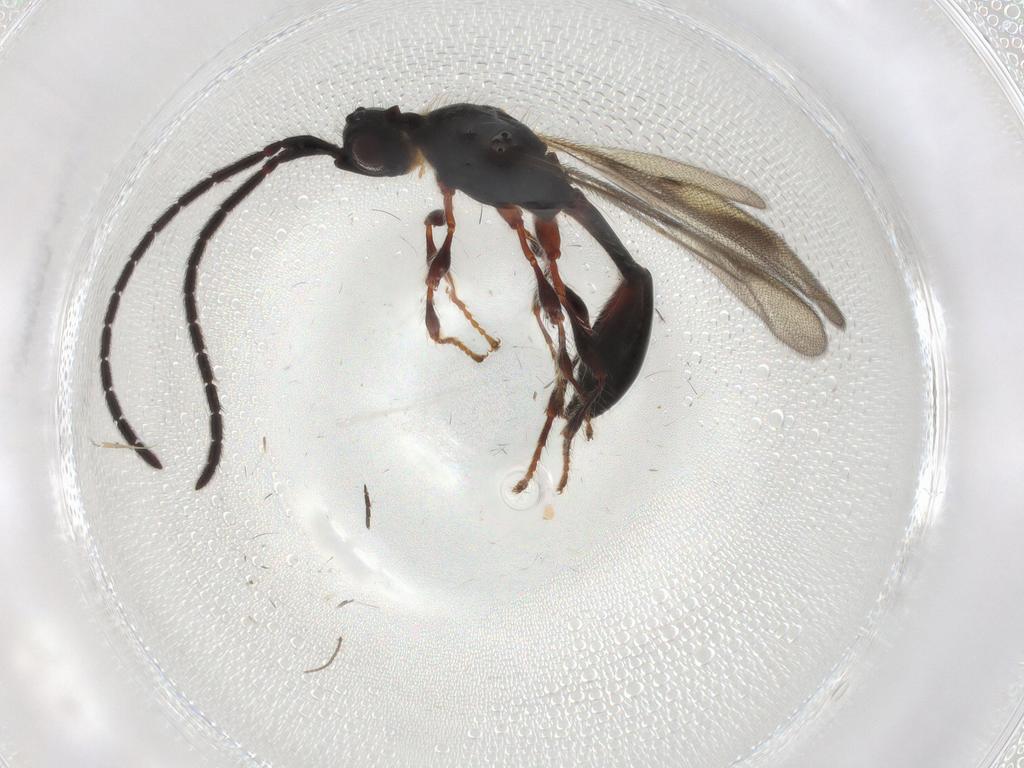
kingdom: Animalia
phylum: Arthropoda
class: Insecta
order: Hymenoptera
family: Diapriidae
